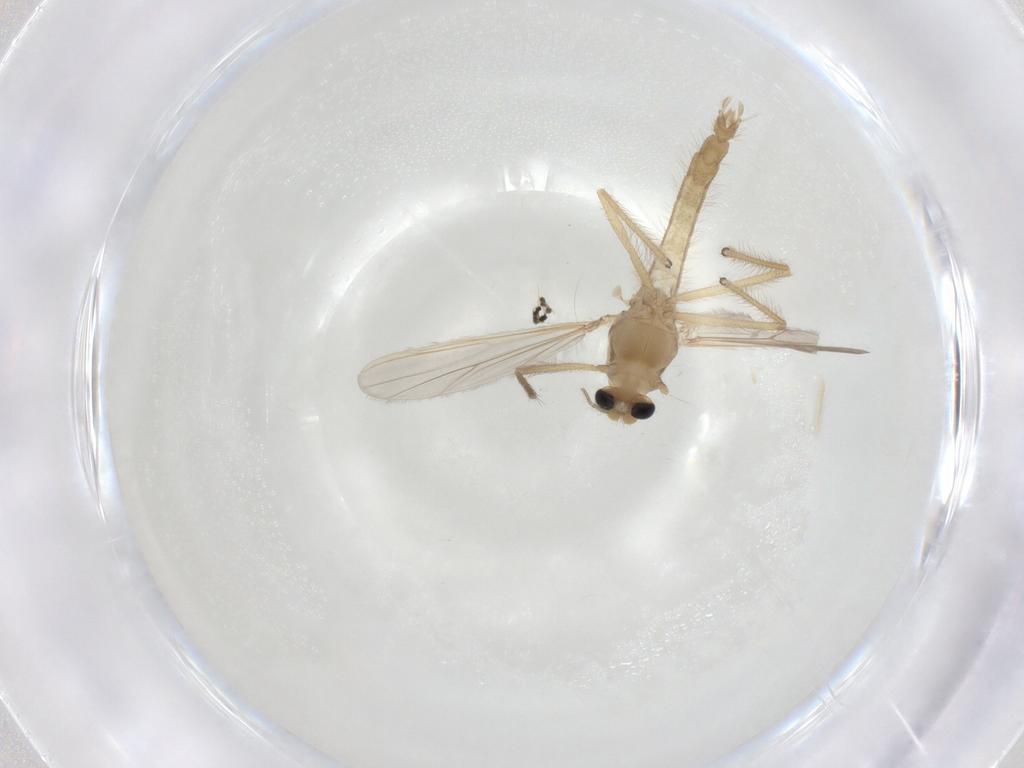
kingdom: Animalia
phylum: Arthropoda
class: Insecta
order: Diptera
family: Chironomidae
